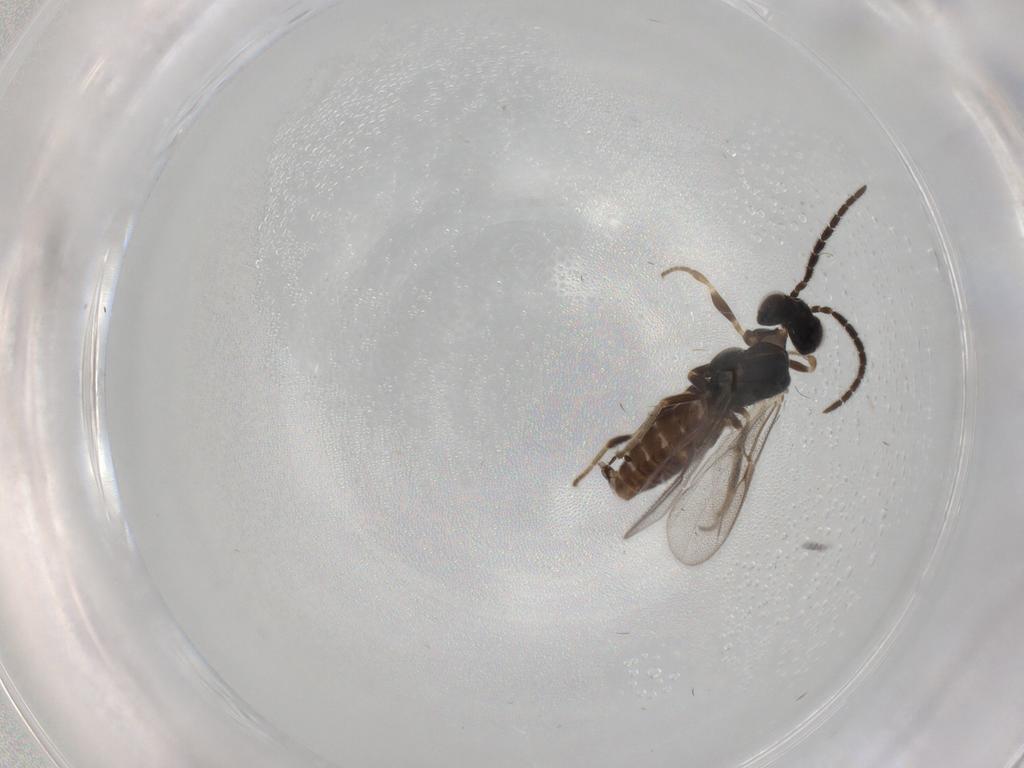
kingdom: Animalia
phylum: Arthropoda
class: Insecta
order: Hymenoptera
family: Dryinidae
